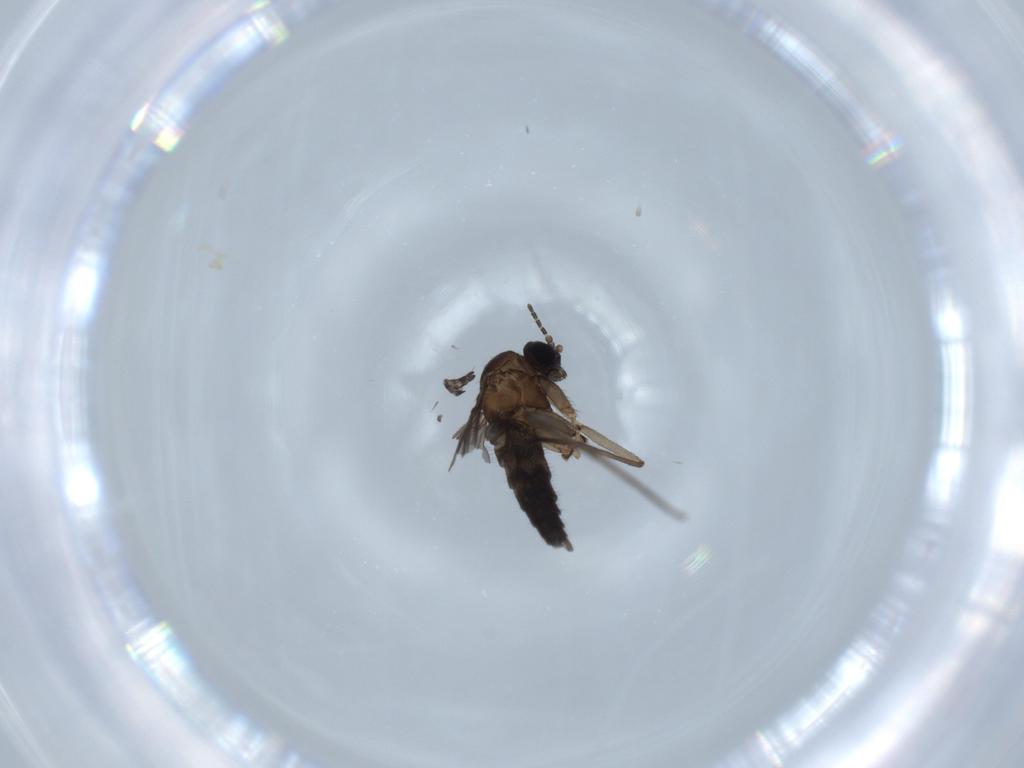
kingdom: Animalia
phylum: Arthropoda
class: Insecta
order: Diptera
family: Sciaridae
